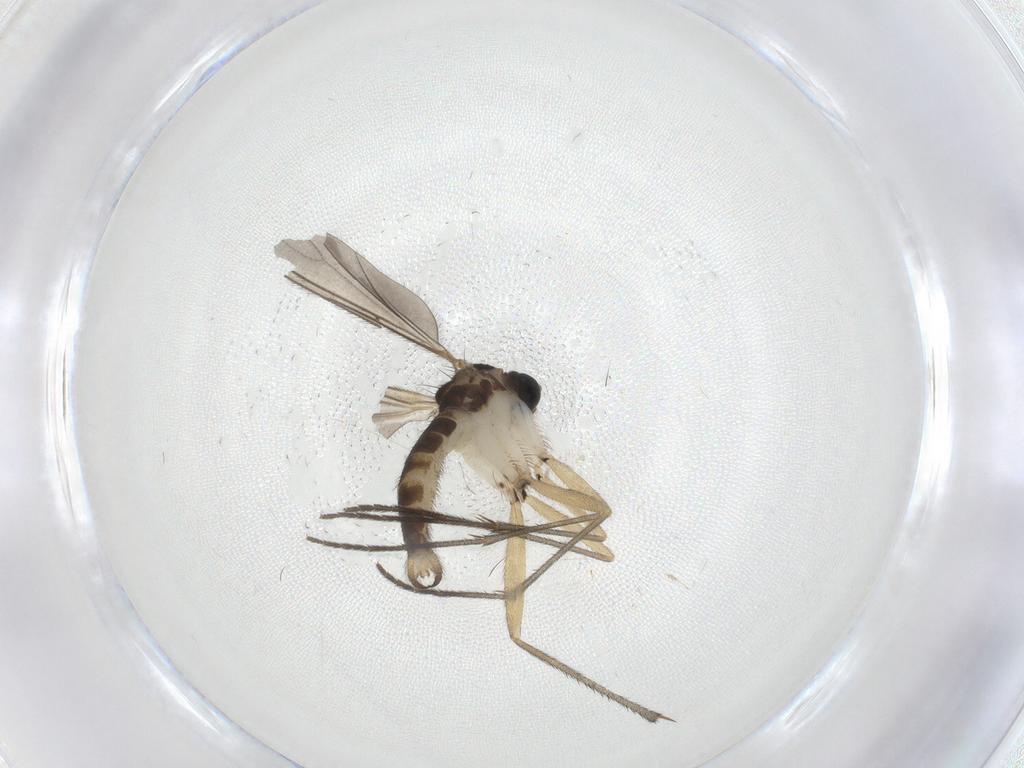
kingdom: Animalia
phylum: Arthropoda
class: Insecta
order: Diptera
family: Sciaridae
